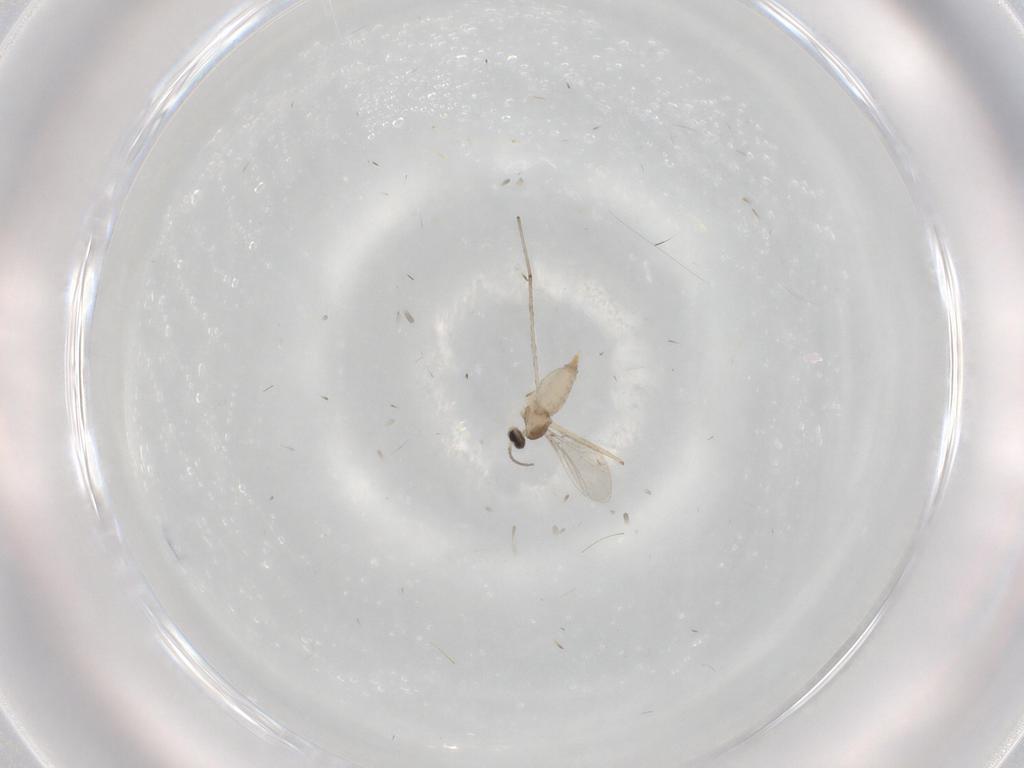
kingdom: Animalia
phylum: Arthropoda
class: Insecta
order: Diptera
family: Cecidomyiidae
